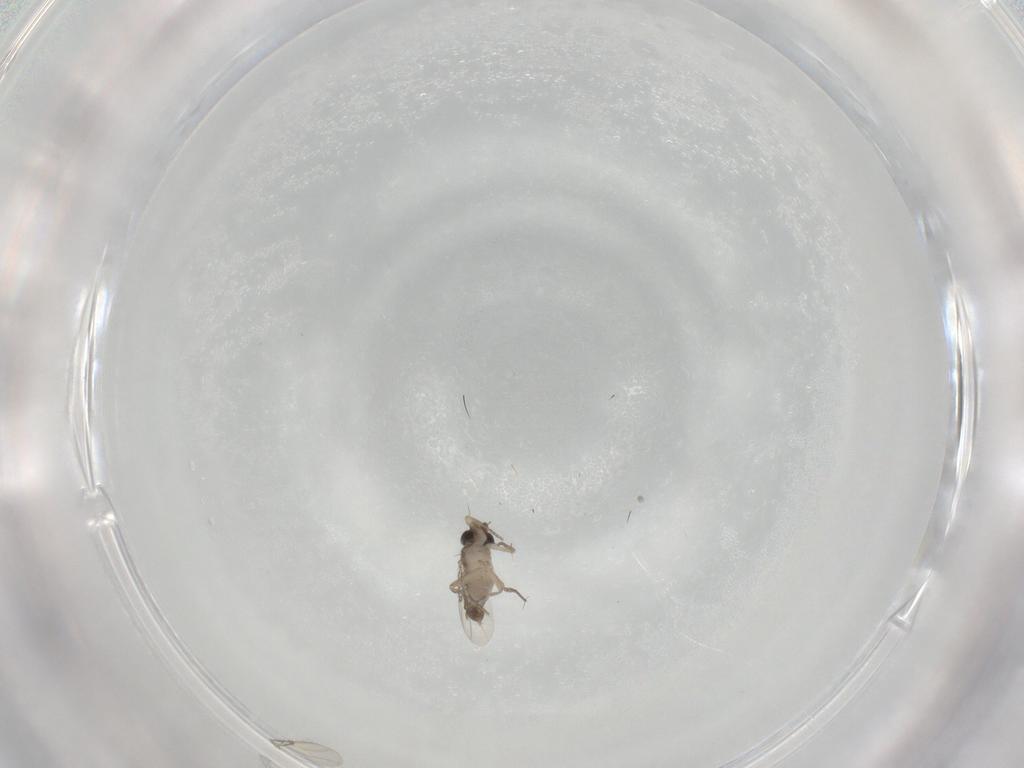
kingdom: Animalia
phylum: Arthropoda
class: Insecta
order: Diptera
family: Phoridae
